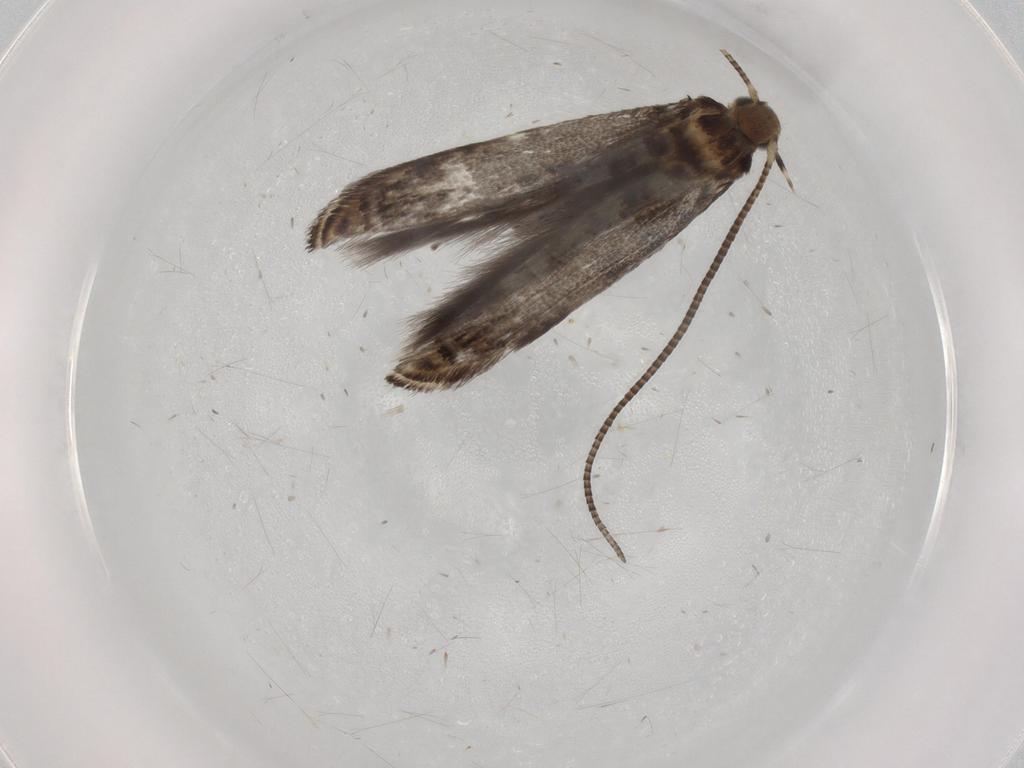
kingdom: Animalia
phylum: Arthropoda
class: Insecta
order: Lepidoptera
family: Gracillariidae
